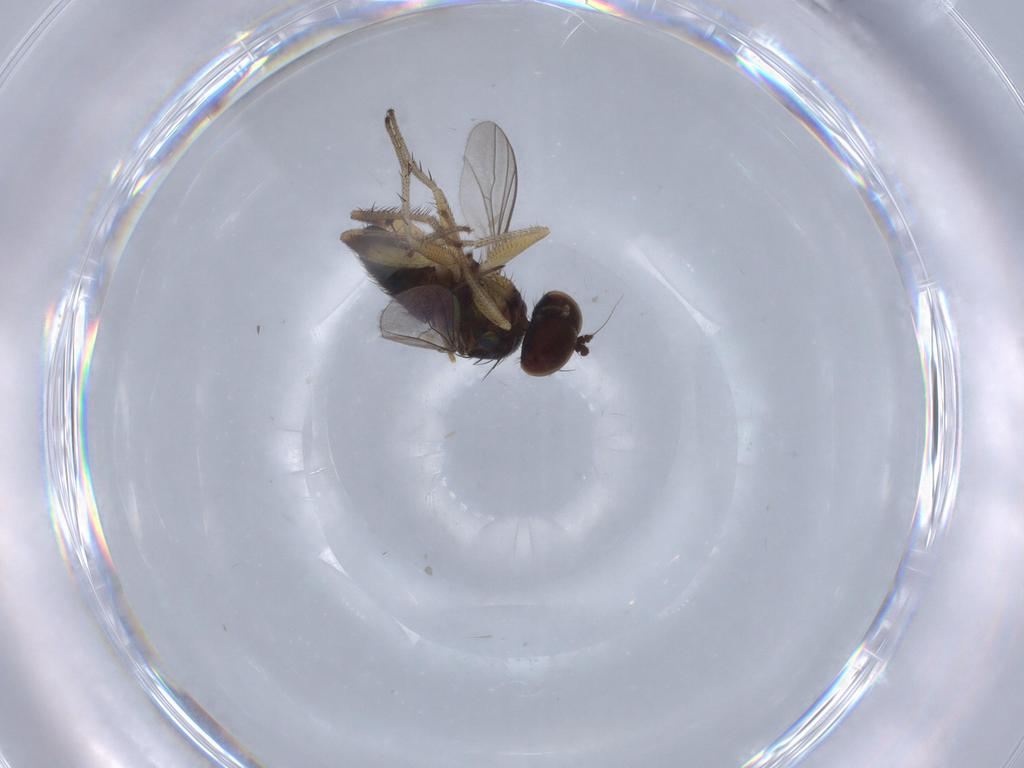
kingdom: Animalia
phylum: Arthropoda
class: Insecta
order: Diptera
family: Dolichopodidae
